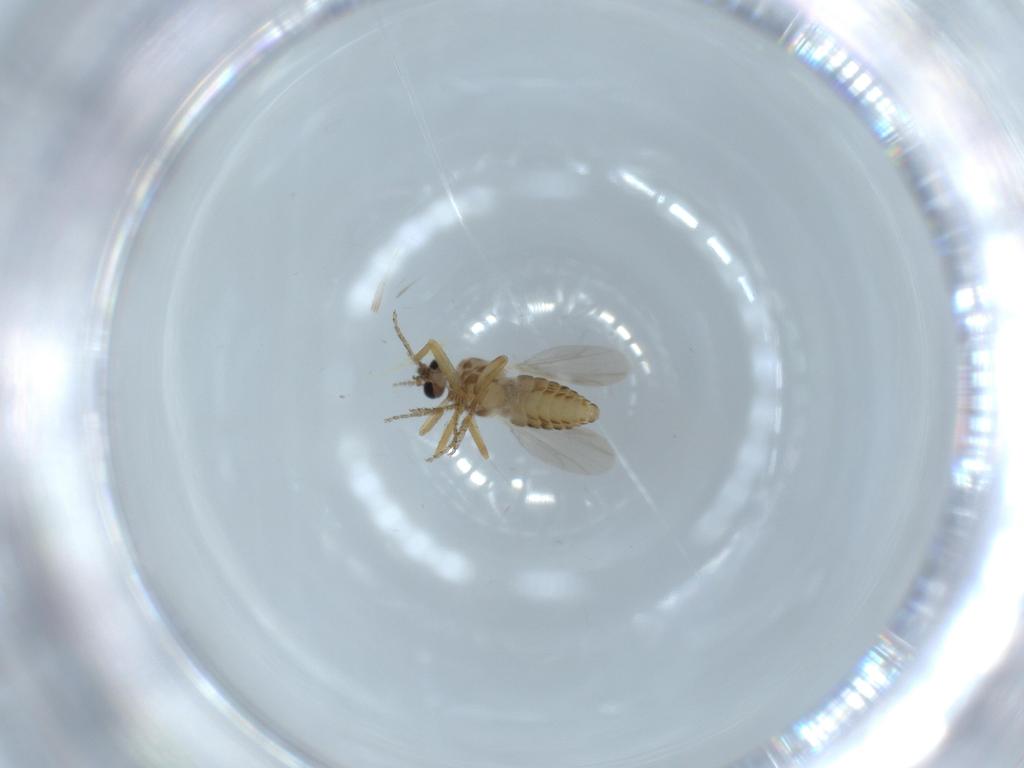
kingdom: Animalia
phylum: Arthropoda
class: Insecta
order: Diptera
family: Ceratopogonidae
